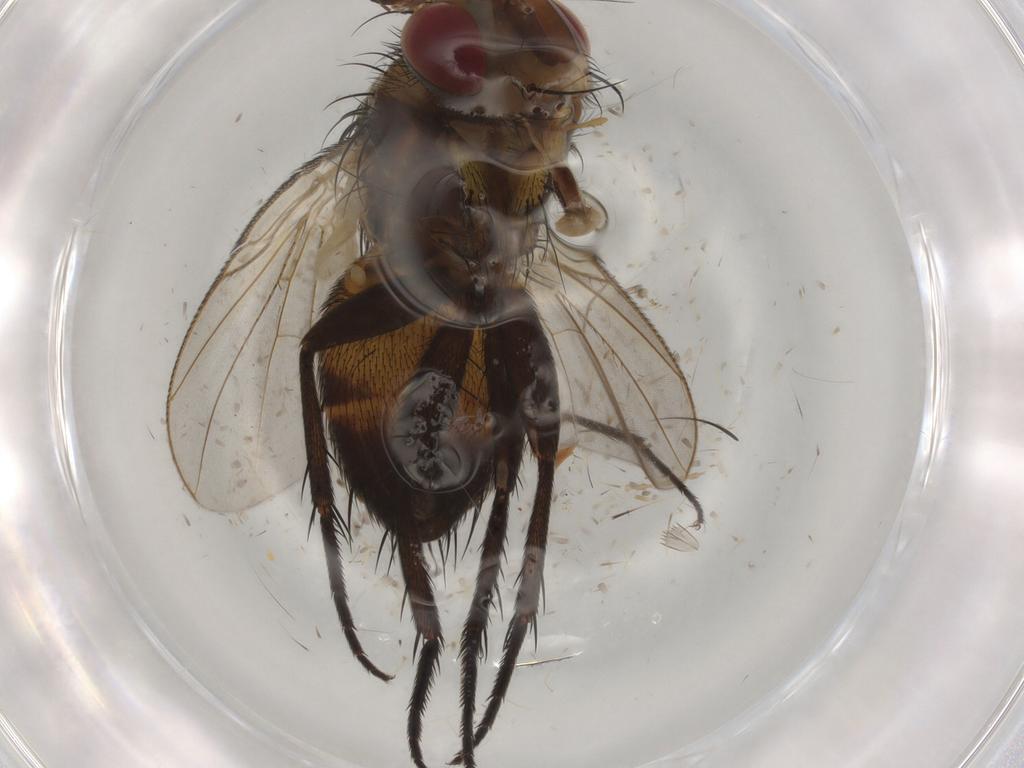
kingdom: Animalia
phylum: Arthropoda
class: Insecta
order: Diptera
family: Cecidomyiidae
